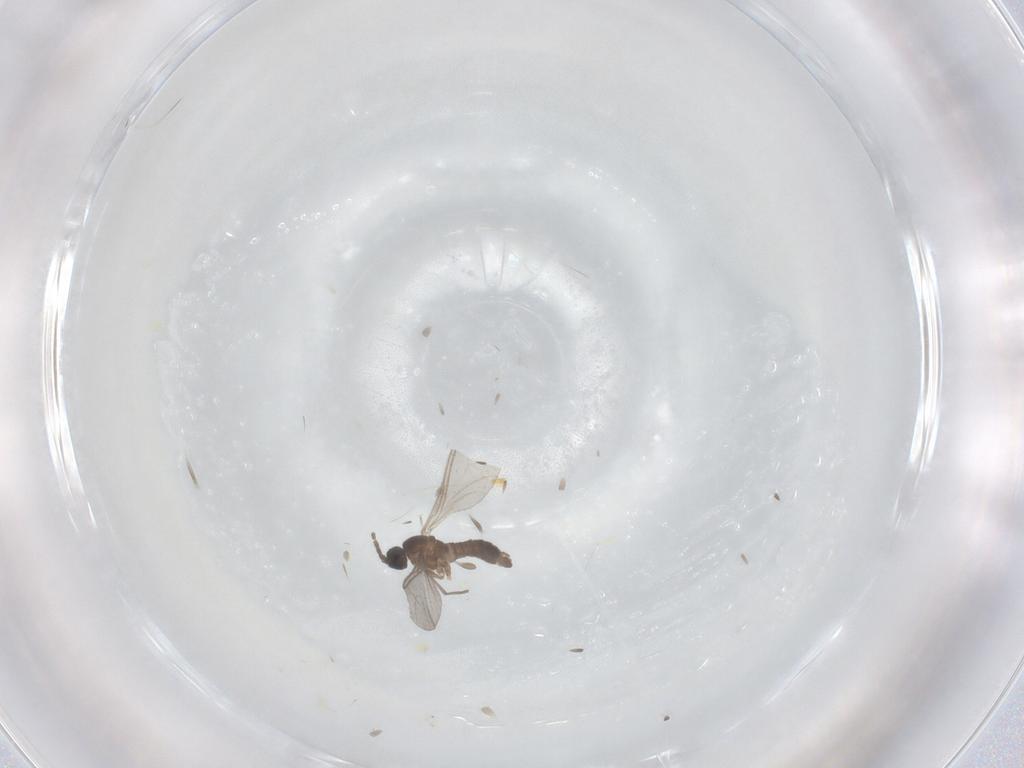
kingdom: Animalia
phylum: Arthropoda
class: Insecta
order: Diptera
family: Sciaridae
